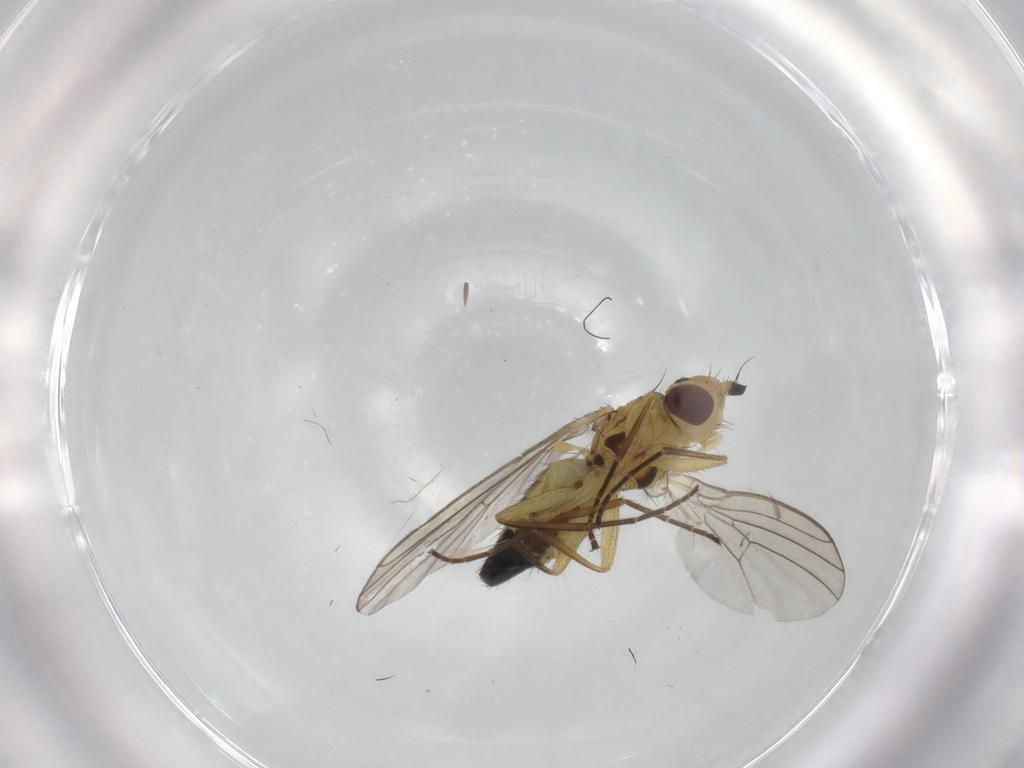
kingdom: Animalia
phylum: Arthropoda
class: Insecta
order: Diptera
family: Agromyzidae
